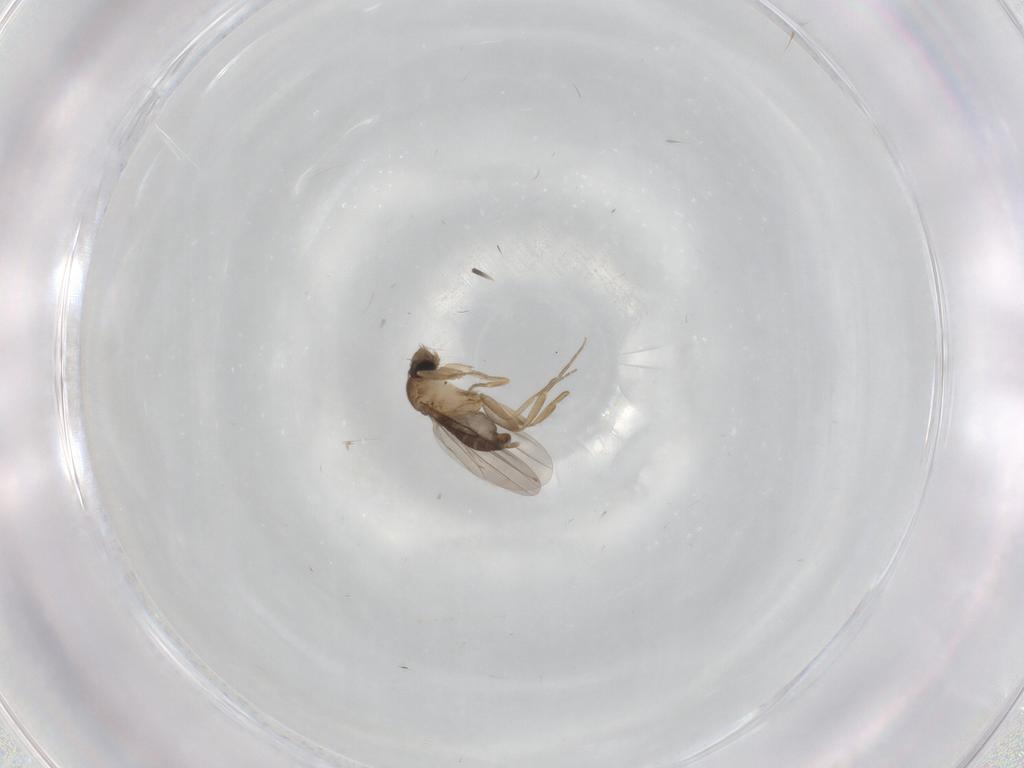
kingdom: Animalia
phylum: Arthropoda
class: Insecta
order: Diptera
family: Phoridae
